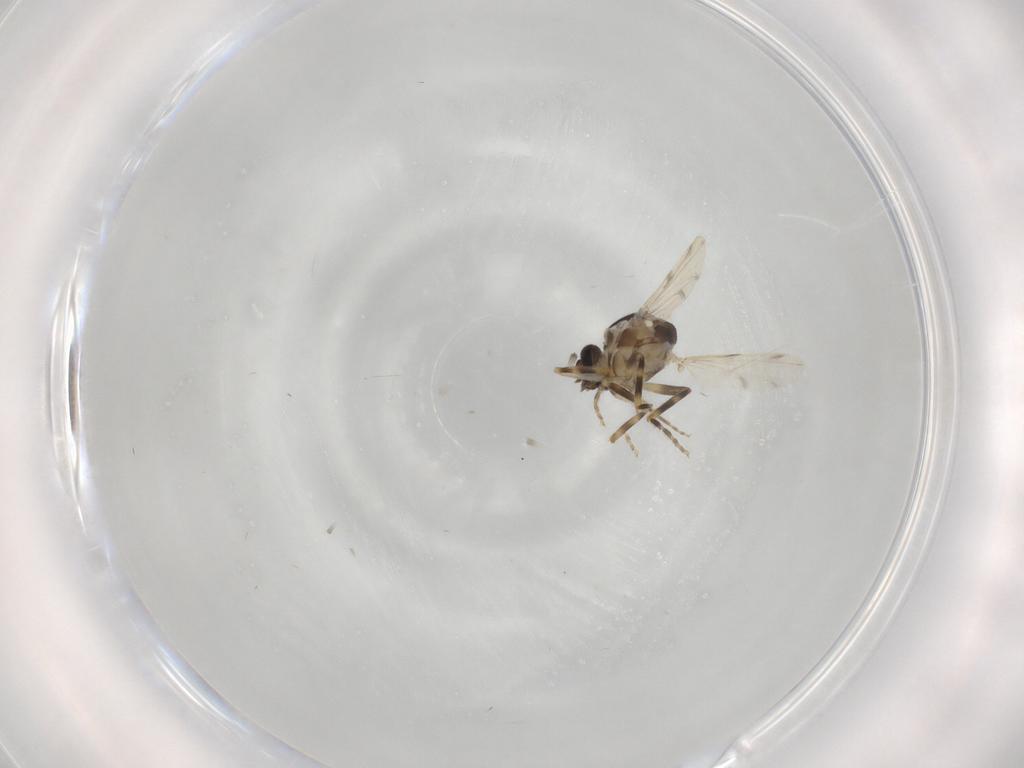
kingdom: Animalia
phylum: Arthropoda
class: Insecta
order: Diptera
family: Ceratopogonidae
